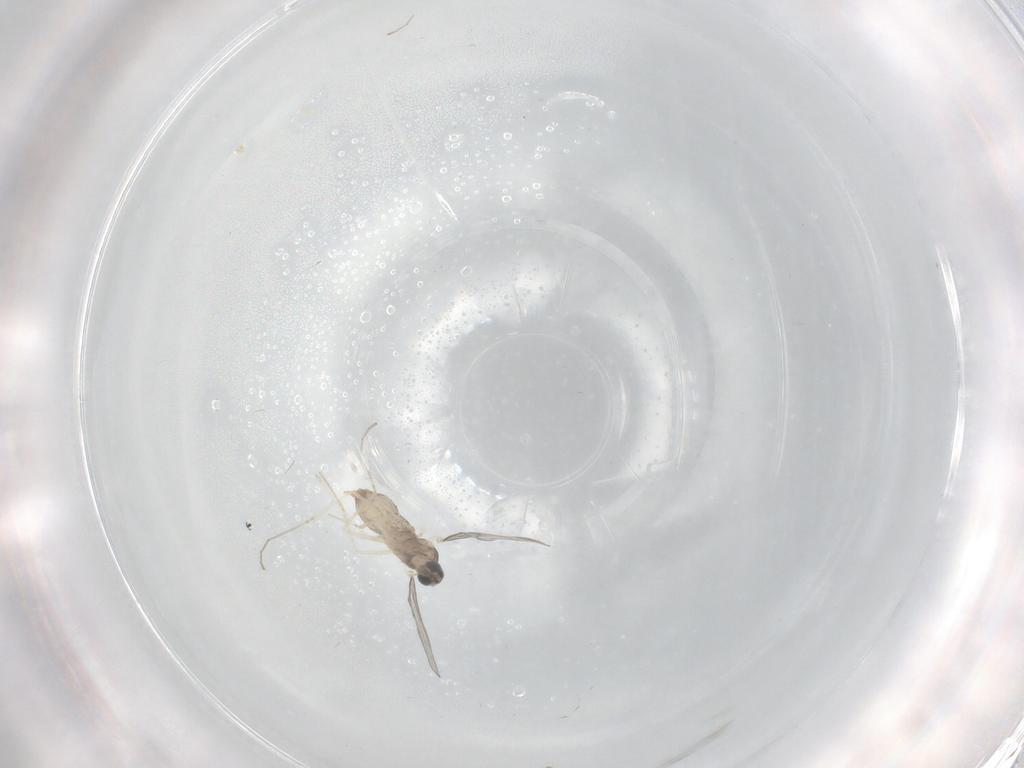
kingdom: Animalia
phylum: Arthropoda
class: Insecta
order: Diptera
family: Cecidomyiidae
